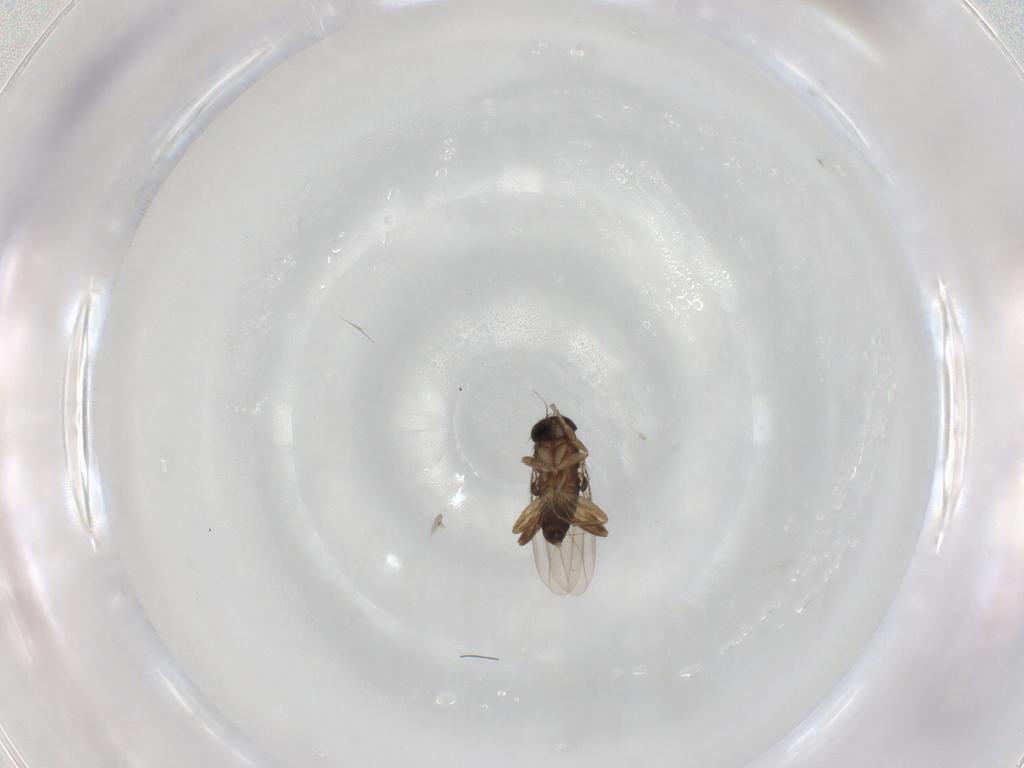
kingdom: Animalia
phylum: Arthropoda
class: Insecta
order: Diptera
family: Phoridae
